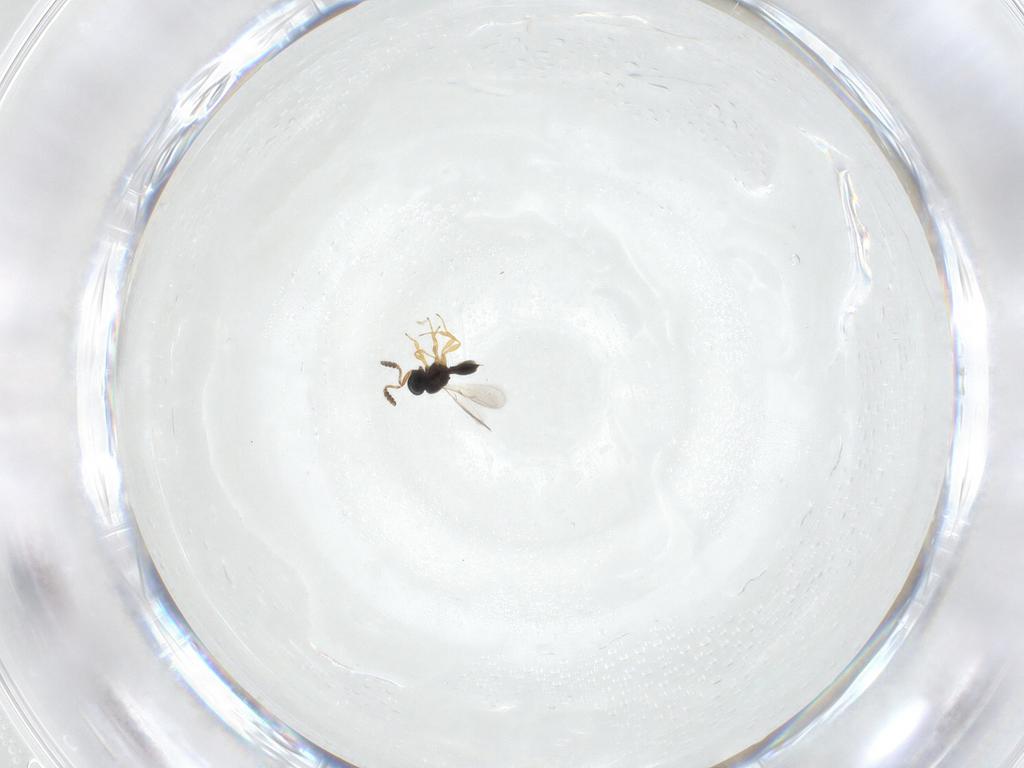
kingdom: Animalia
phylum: Arthropoda
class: Insecta
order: Hymenoptera
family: Scelionidae
